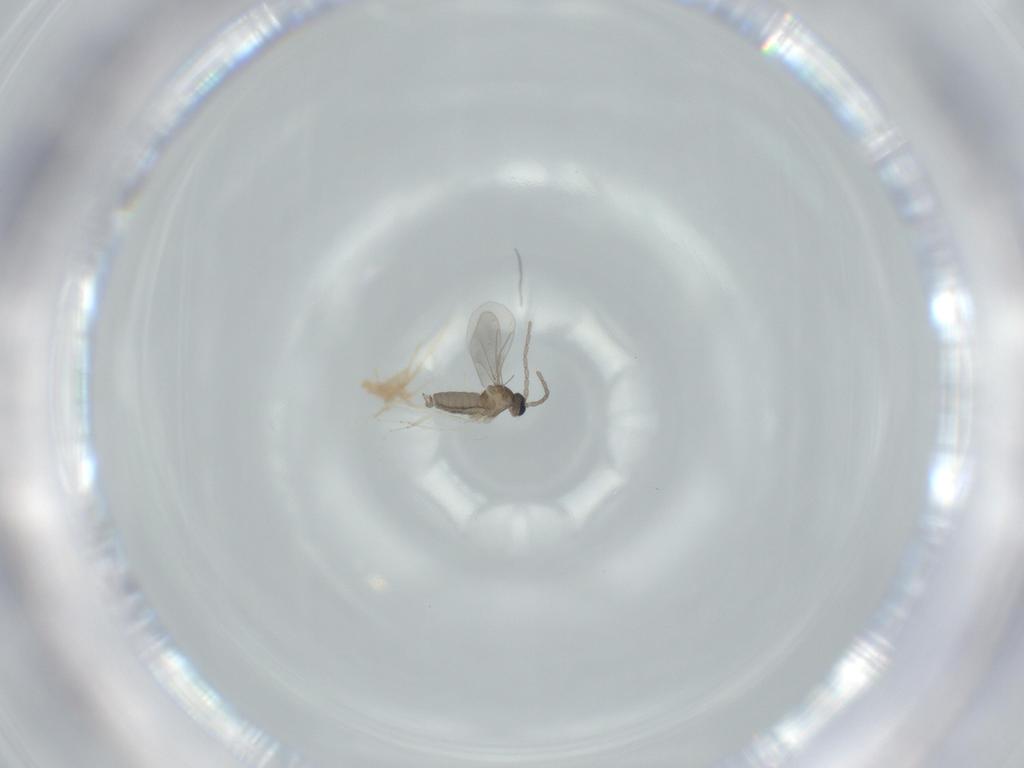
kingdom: Animalia
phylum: Arthropoda
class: Insecta
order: Diptera
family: Cecidomyiidae
